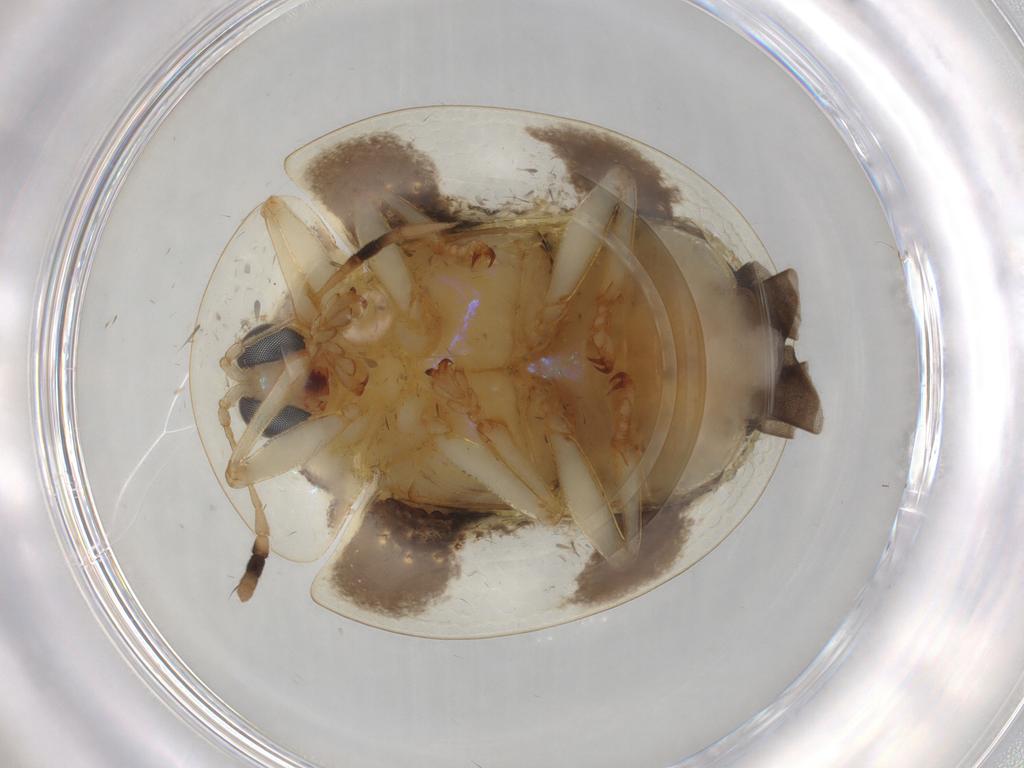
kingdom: Animalia
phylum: Arthropoda
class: Insecta
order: Coleoptera
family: Chrysomelidae
